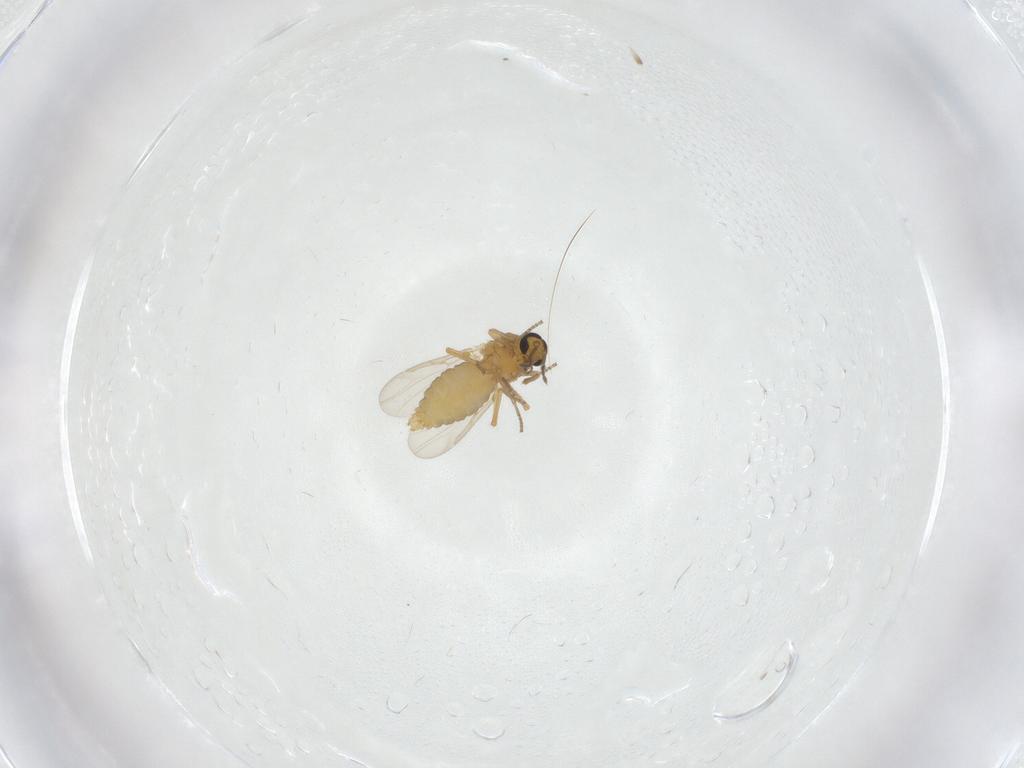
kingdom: Animalia
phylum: Arthropoda
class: Insecta
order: Diptera
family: Ceratopogonidae
